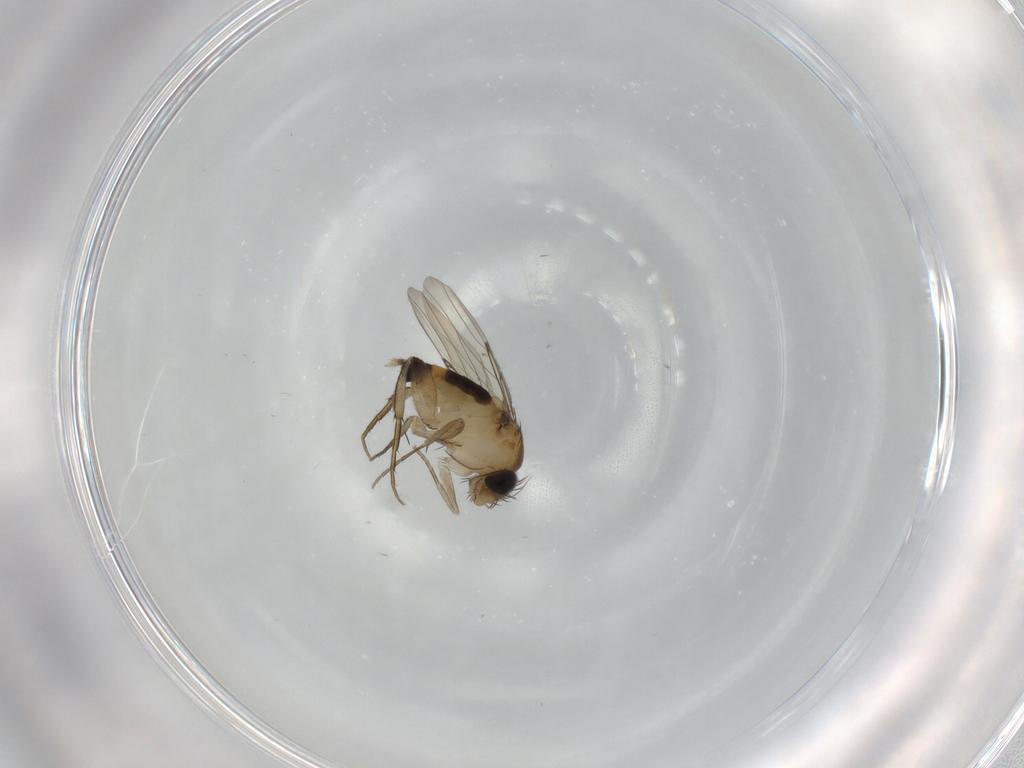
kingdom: Animalia
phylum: Arthropoda
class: Insecta
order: Diptera
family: Phoridae
